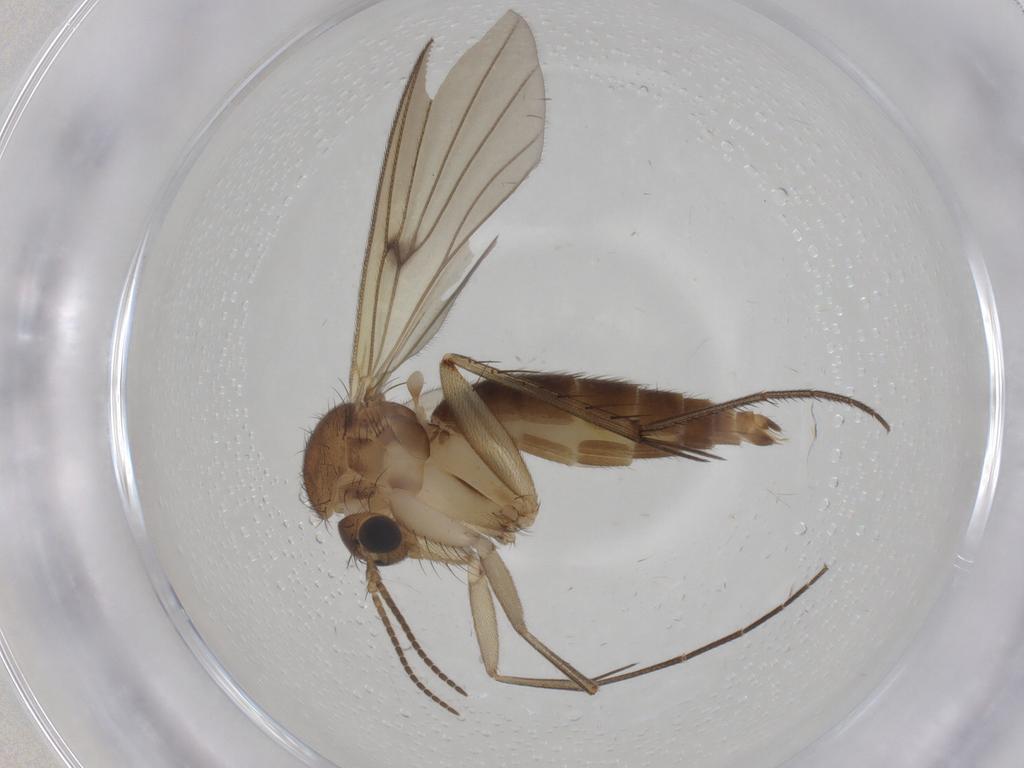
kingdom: Animalia
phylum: Arthropoda
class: Insecta
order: Diptera
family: Mycetophilidae
